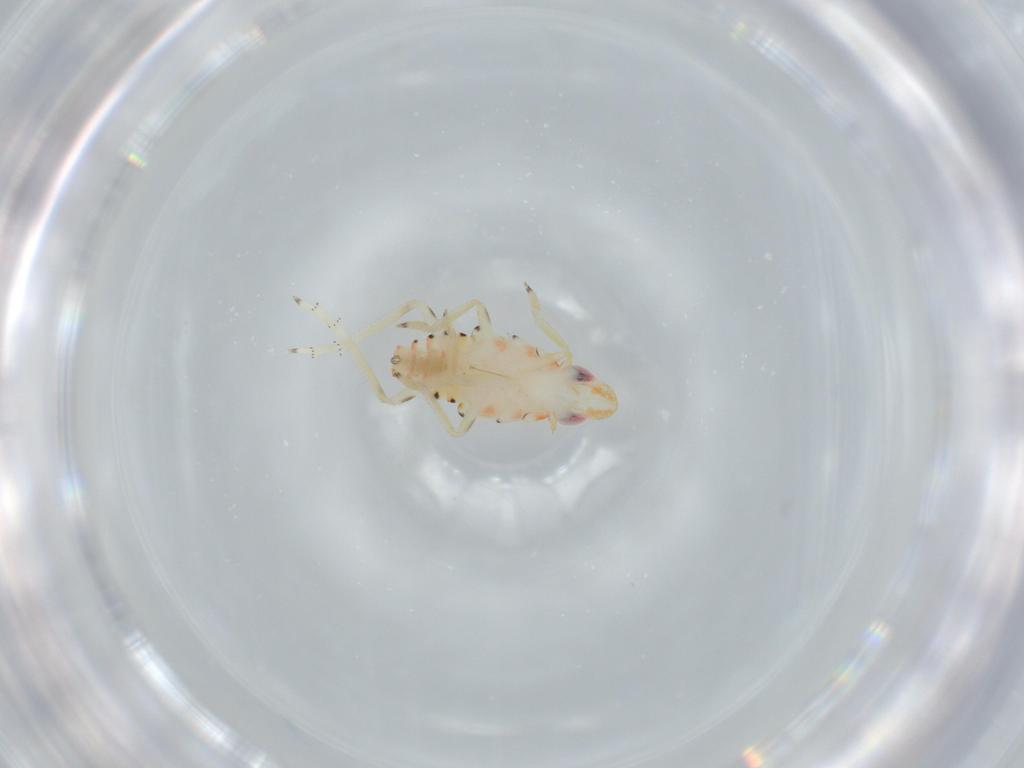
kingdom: Animalia
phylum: Arthropoda
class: Insecta
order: Hemiptera
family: Tropiduchidae
